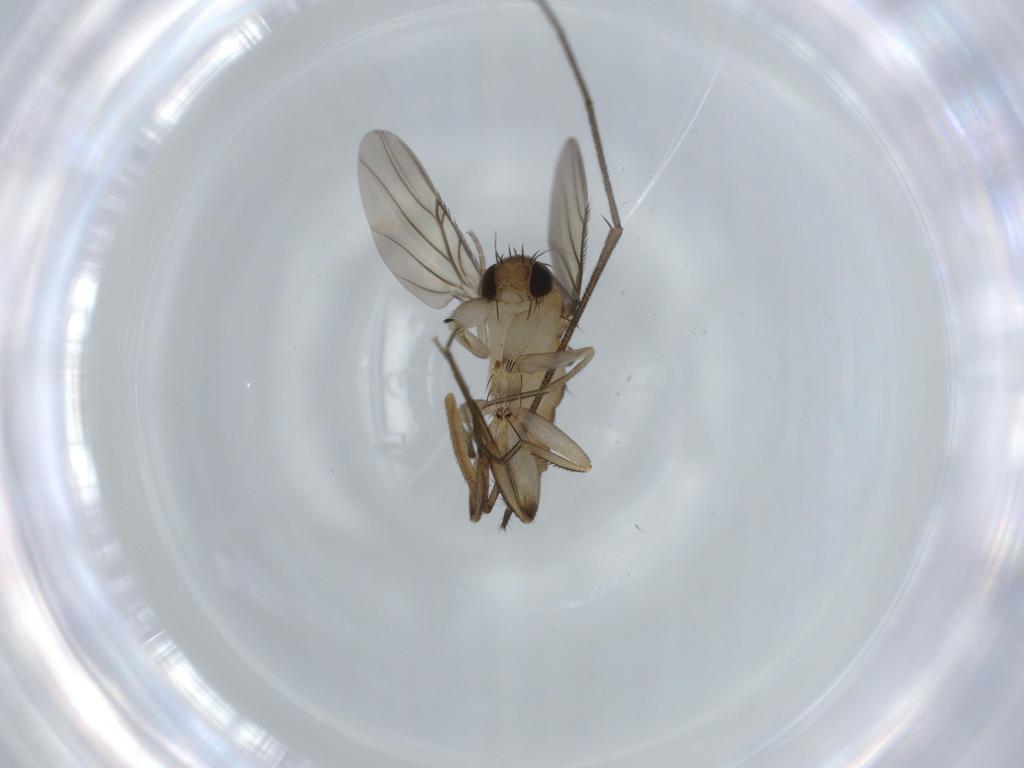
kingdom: Animalia
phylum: Arthropoda
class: Insecta
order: Diptera
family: Phoridae
